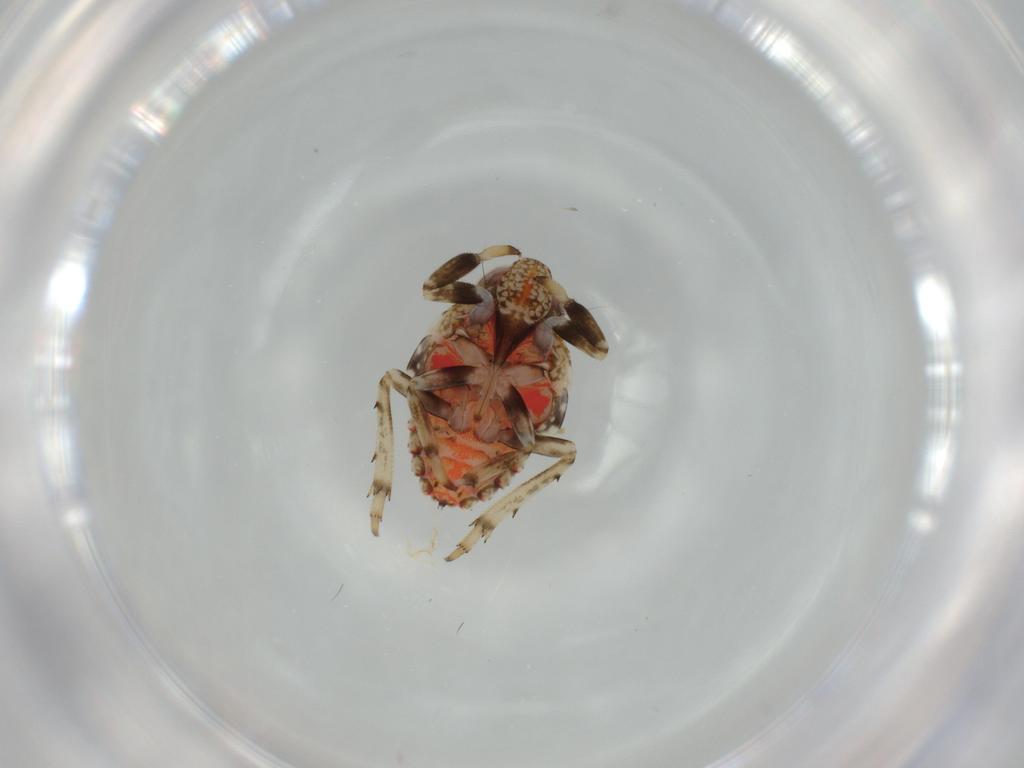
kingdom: Animalia
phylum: Arthropoda
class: Insecta
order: Hemiptera
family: Issidae
